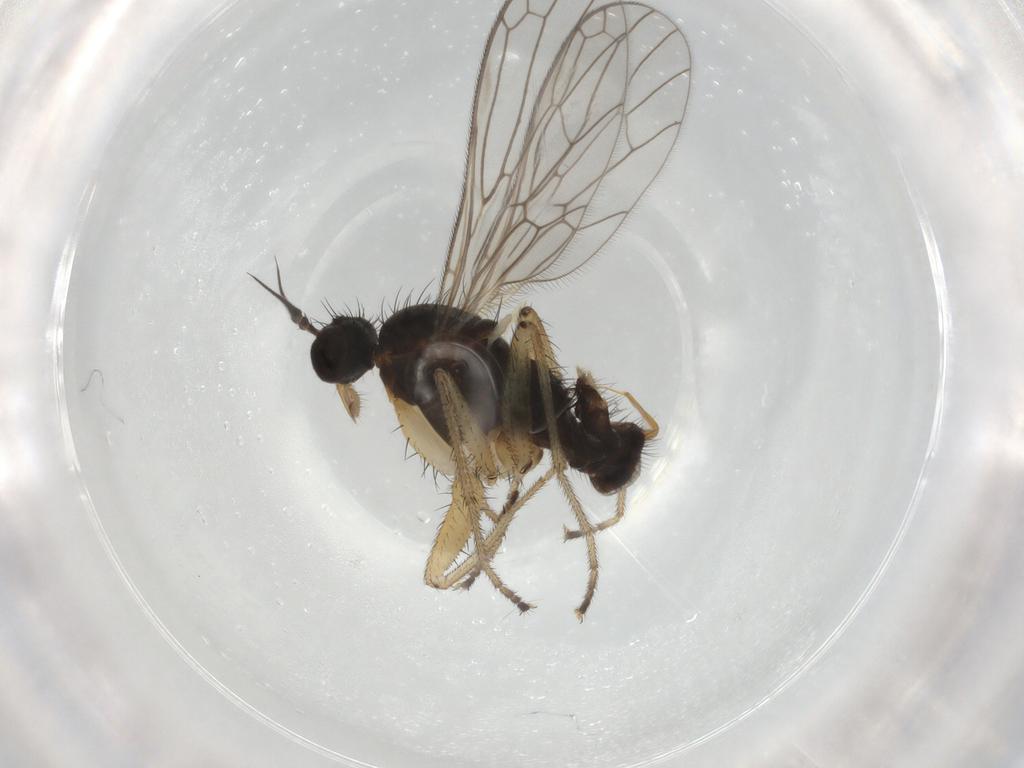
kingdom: Animalia
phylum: Arthropoda
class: Insecta
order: Diptera
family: Empididae
